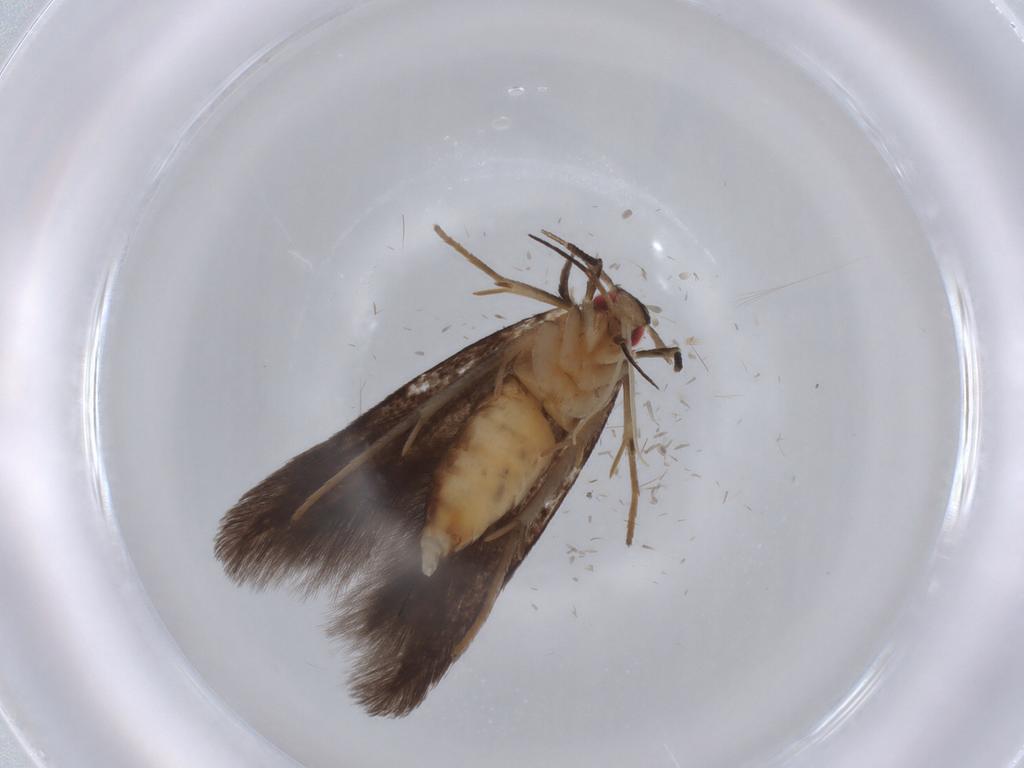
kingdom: Animalia
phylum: Arthropoda
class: Insecta
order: Lepidoptera
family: Cosmopterigidae
